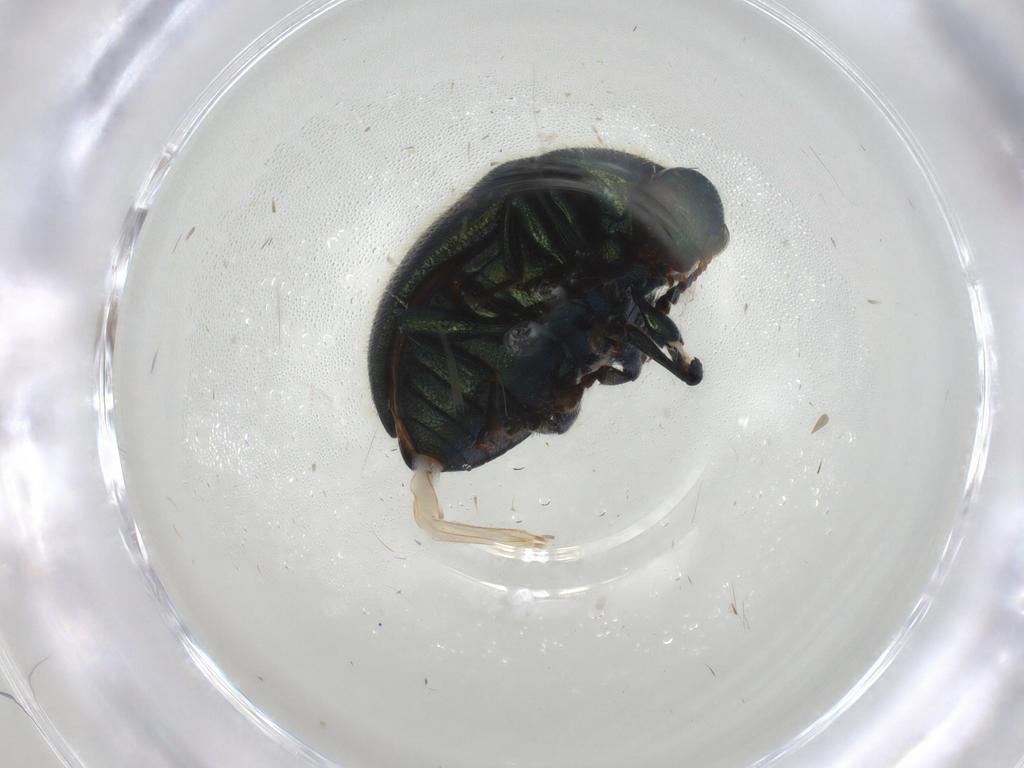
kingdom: Animalia
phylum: Arthropoda
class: Insecta
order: Coleoptera
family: Chrysomelidae
